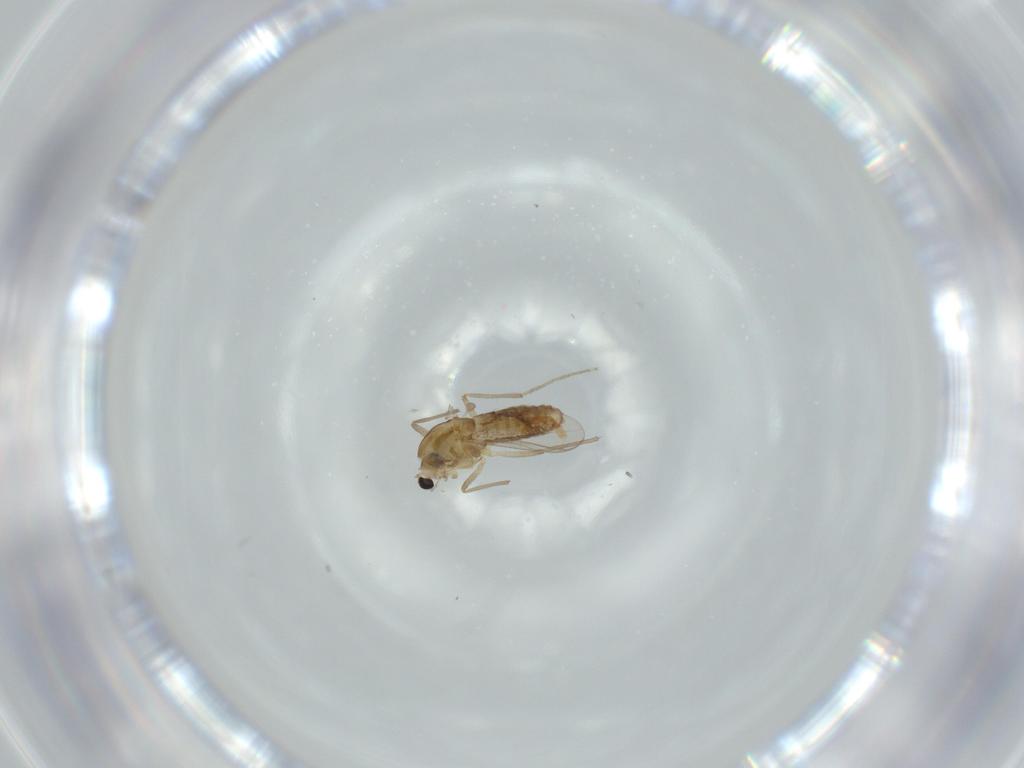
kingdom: Animalia
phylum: Arthropoda
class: Insecta
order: Diptera
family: Chironomidae
